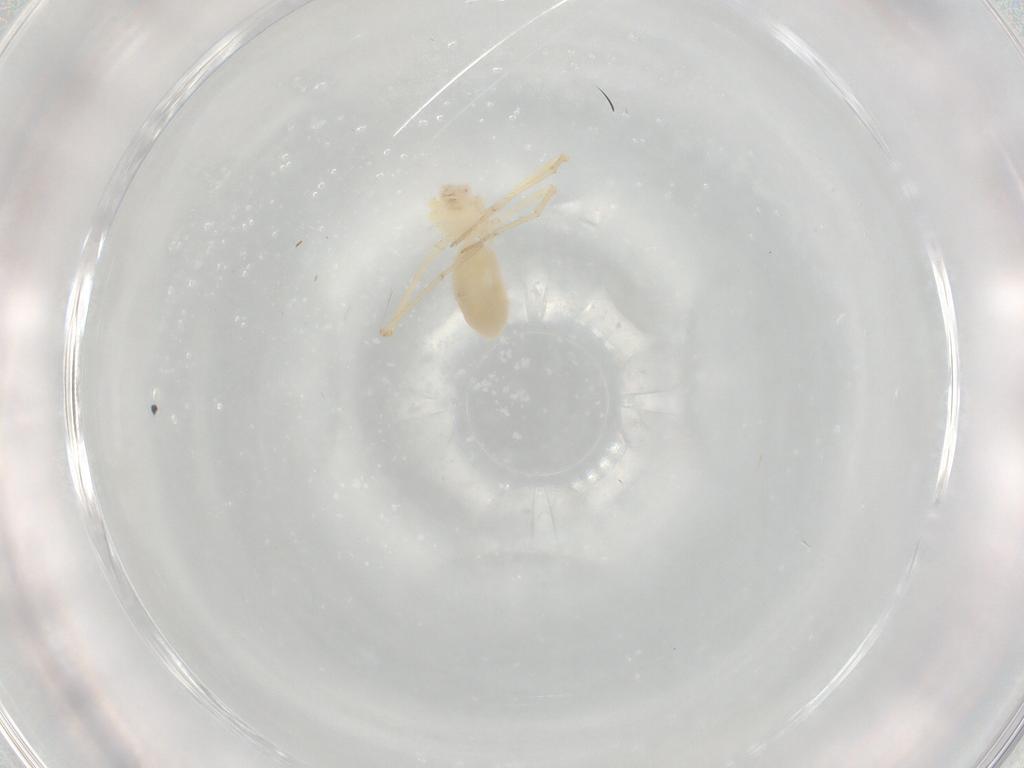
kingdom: Animalia
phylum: Arthropoda
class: Arachnida
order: Araneae
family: Pholcidae
